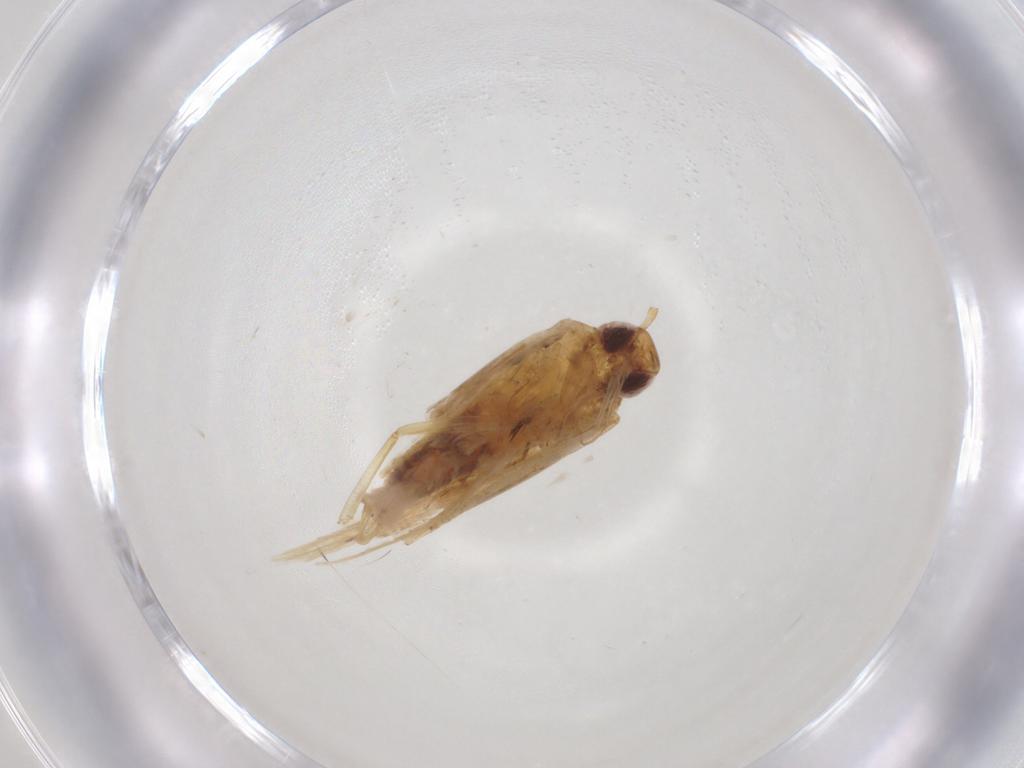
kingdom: Animalia
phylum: Arthropoda
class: Insecta
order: Lepidoptera
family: Gelechiidae
